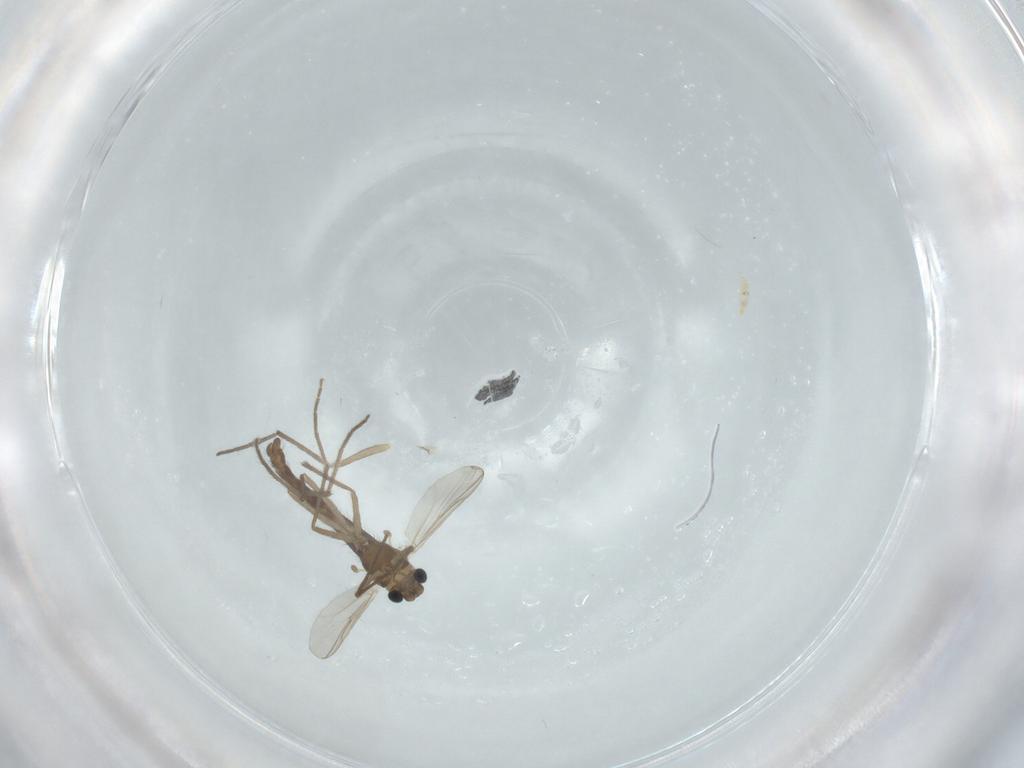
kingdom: Animalia
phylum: Arthropoda
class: Insecta
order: Diptera
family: Chironomidae
